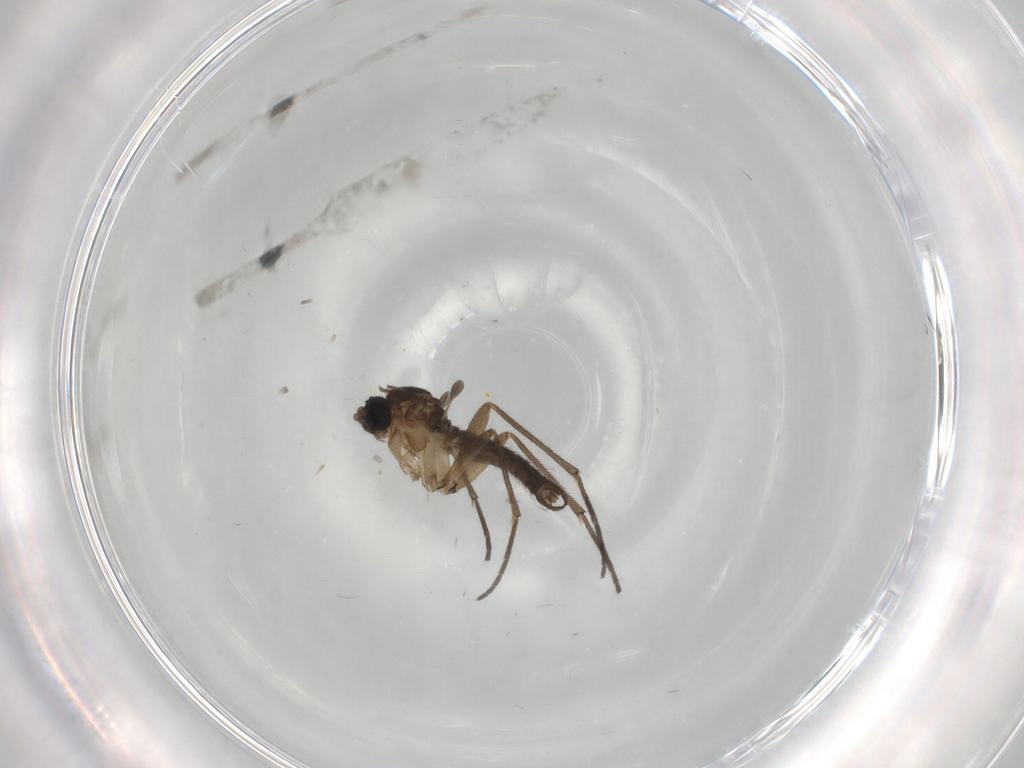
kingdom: Animalia
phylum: Arthropoda
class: Insecta
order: Diptera
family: Sciaridae
